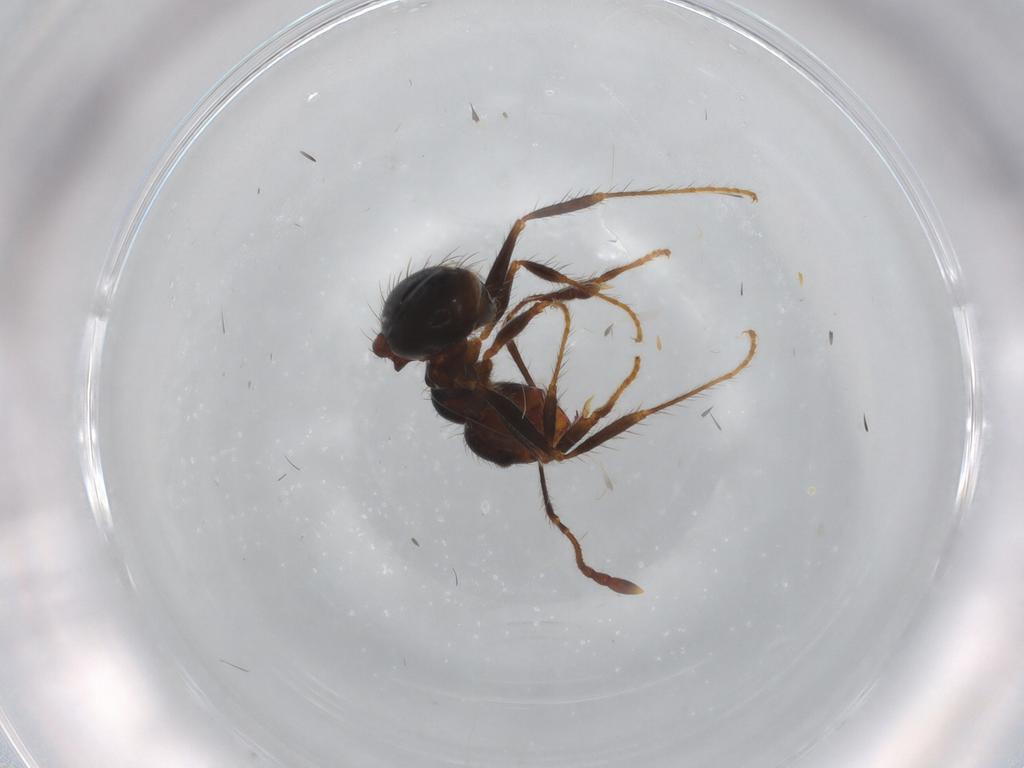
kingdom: Animalia
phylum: Arthropoda
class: Insecta
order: Hymenoptera
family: Formicidae
